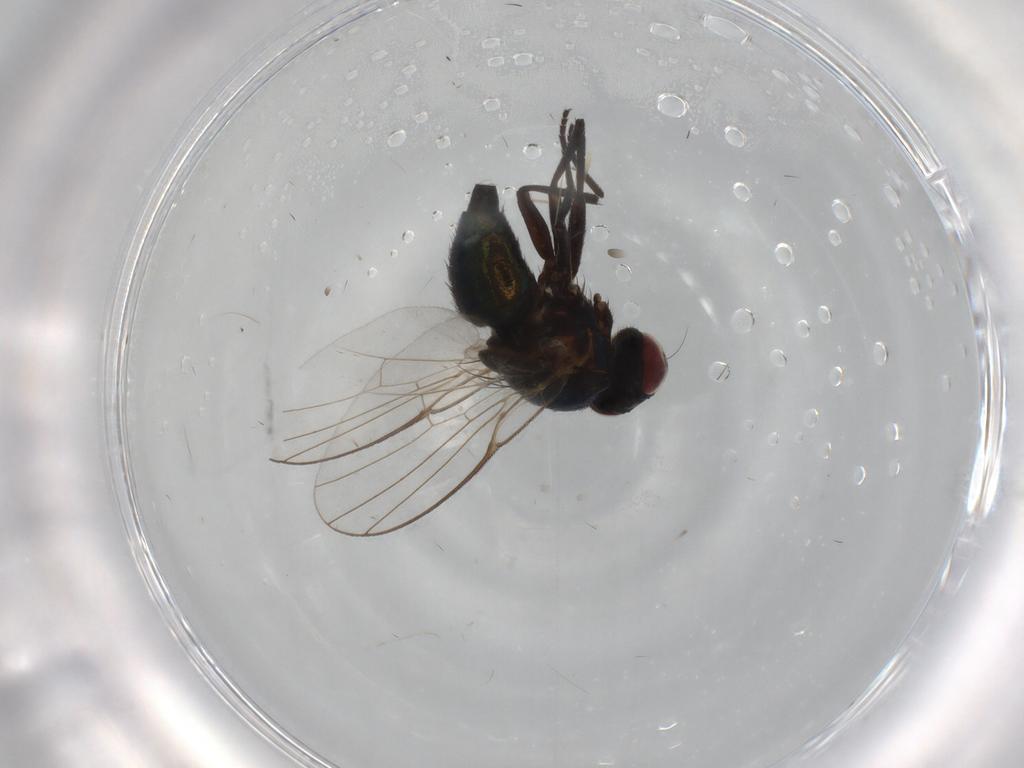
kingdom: Animalia
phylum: Arthropoda
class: Insecta
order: Diptera
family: Agromyzidae
